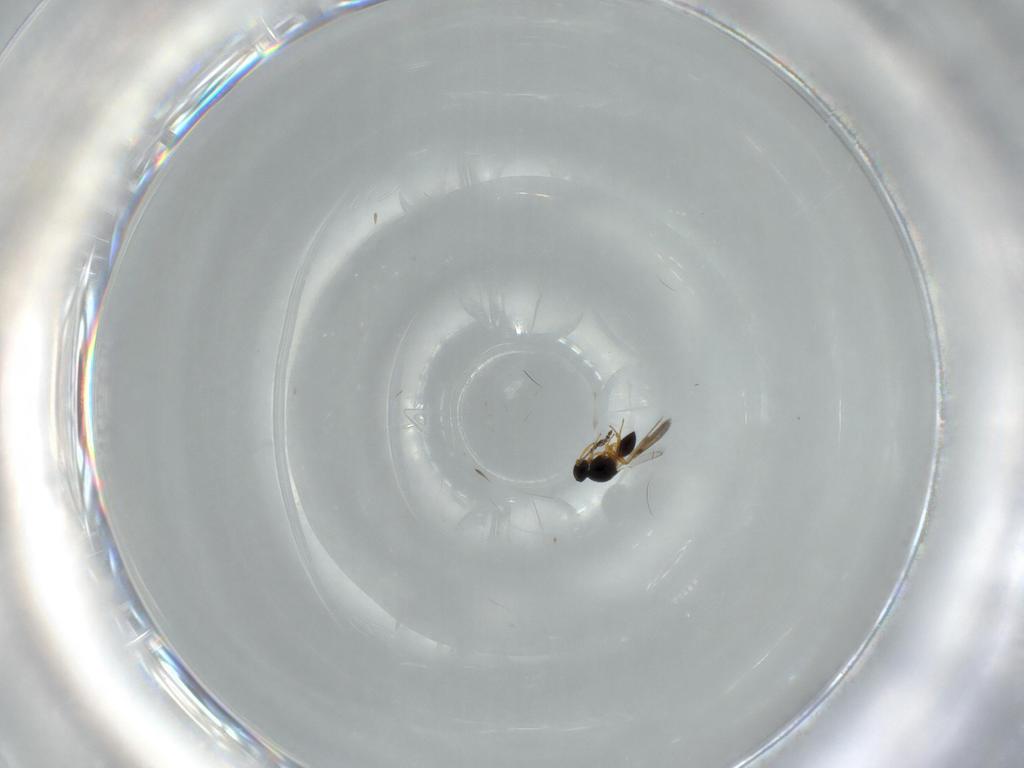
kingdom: Animalia
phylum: Arthropoda
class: Insecta
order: Hymenoptera
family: Platygastridae
